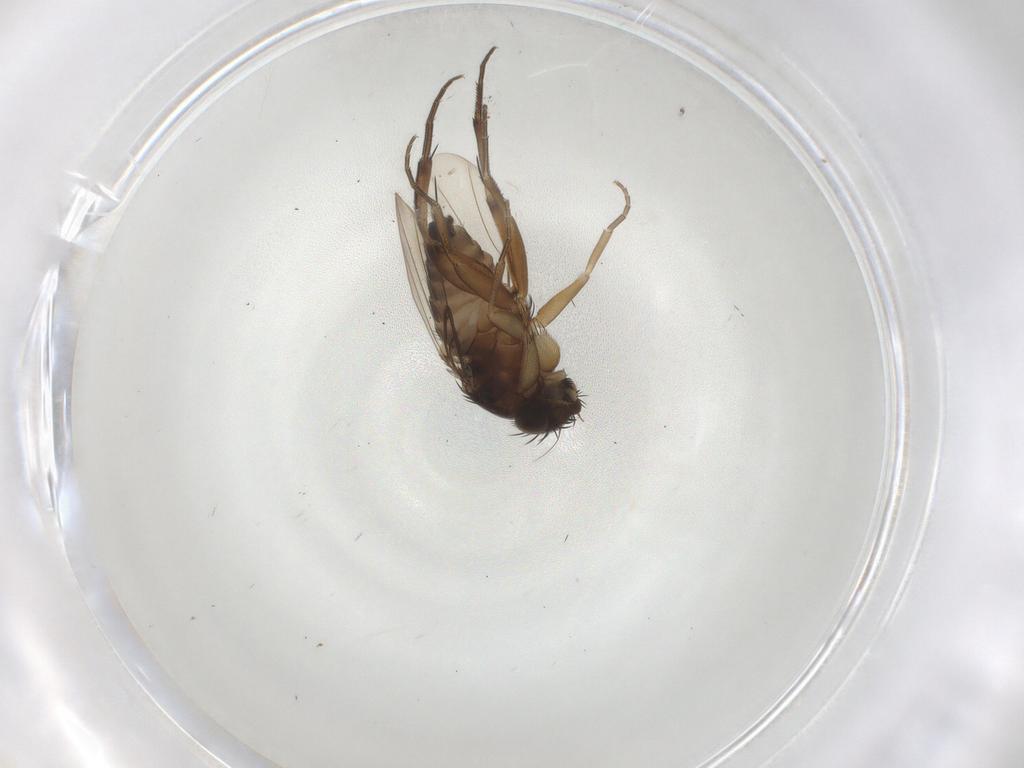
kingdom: Animalia
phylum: Arthropoda
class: Insecta
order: Diptera
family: Phoridae
